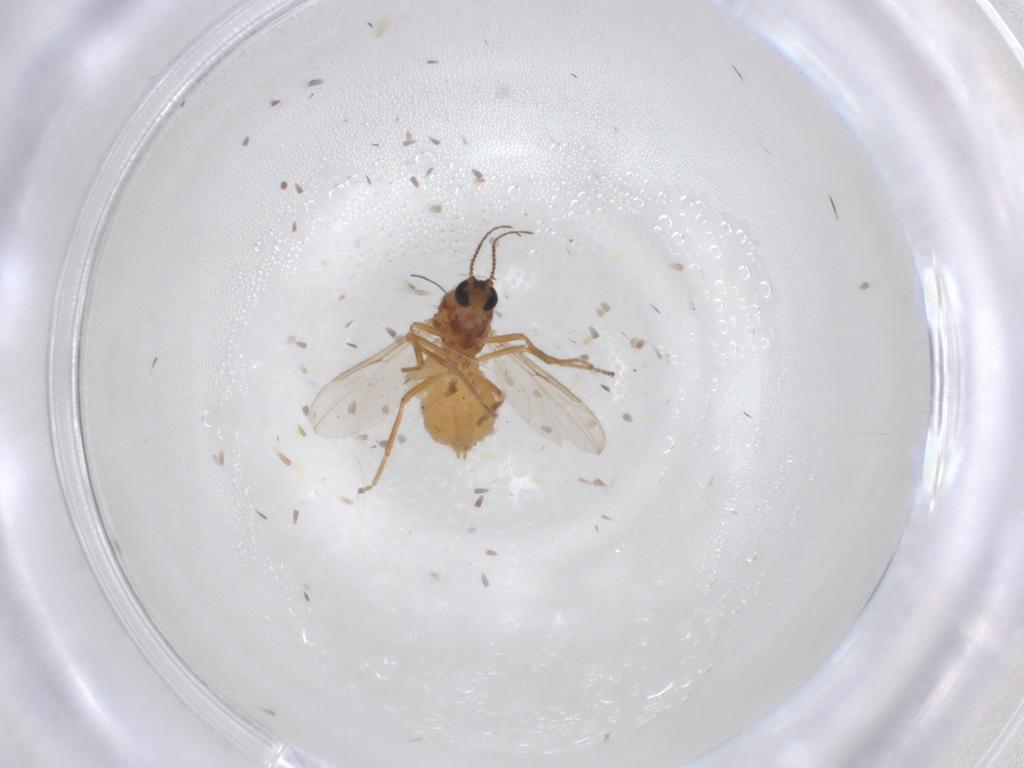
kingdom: Animalia
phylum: Arthropoda
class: Insecta
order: Diptera
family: Ceratopogonidae
